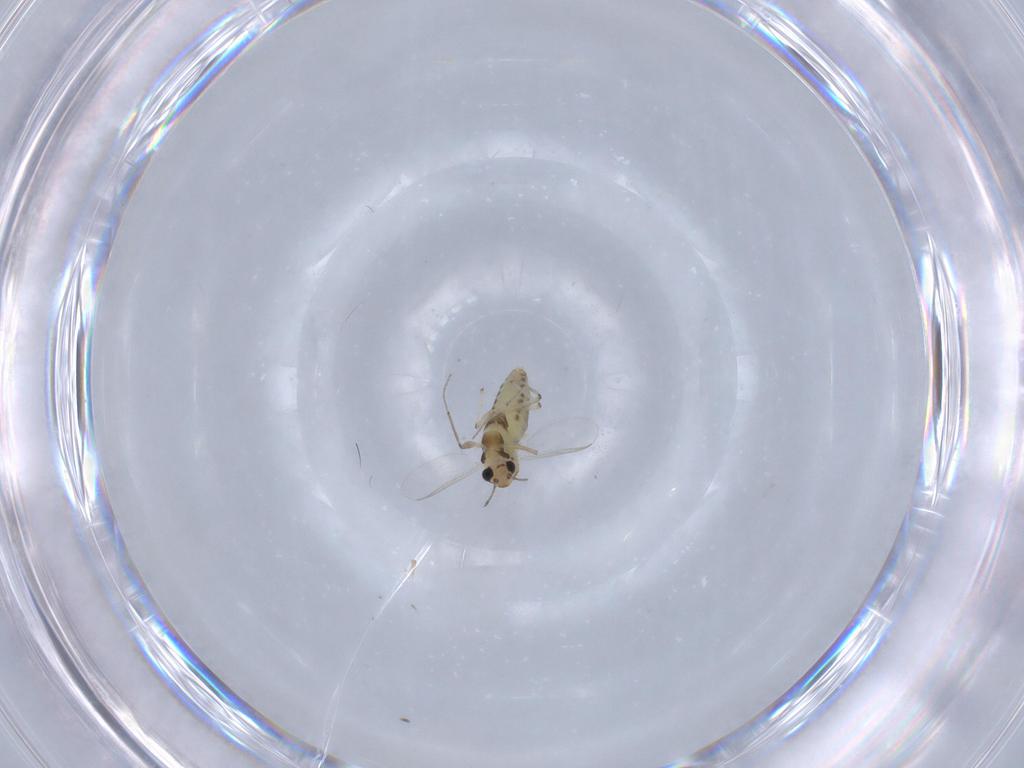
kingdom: Animalia
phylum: Arthropoda
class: Insecta
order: Diptera
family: Chironomidae
